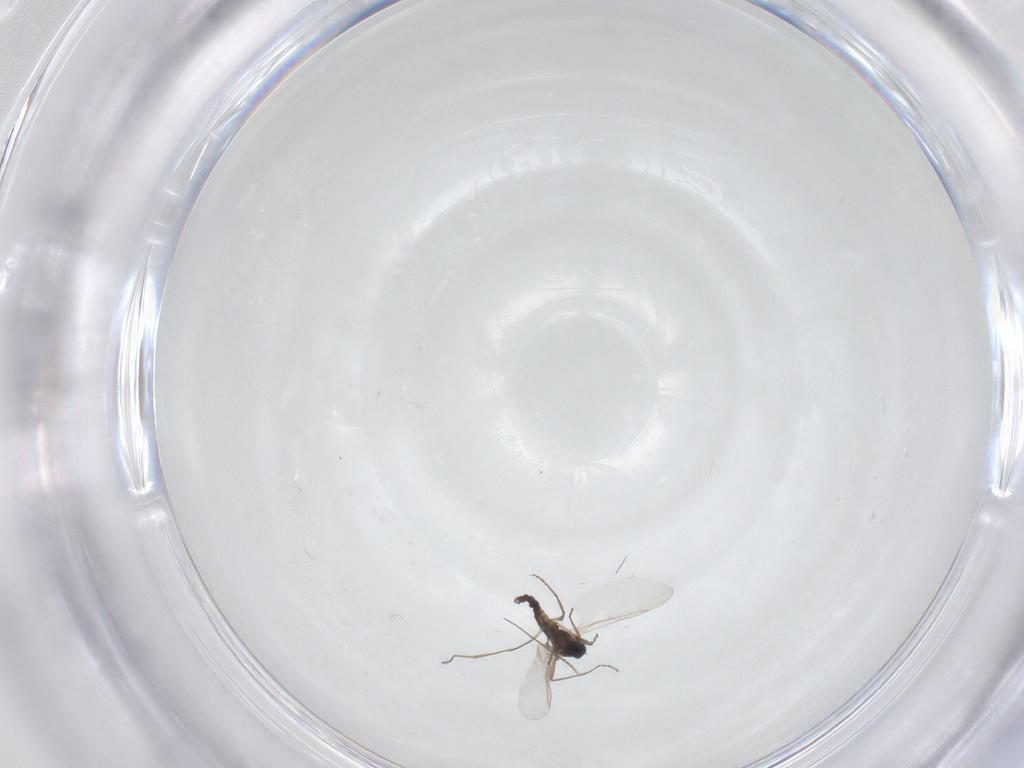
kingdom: Animalia
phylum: Arthropoda
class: Insecta
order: Diptera
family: Cecidomyiidae
